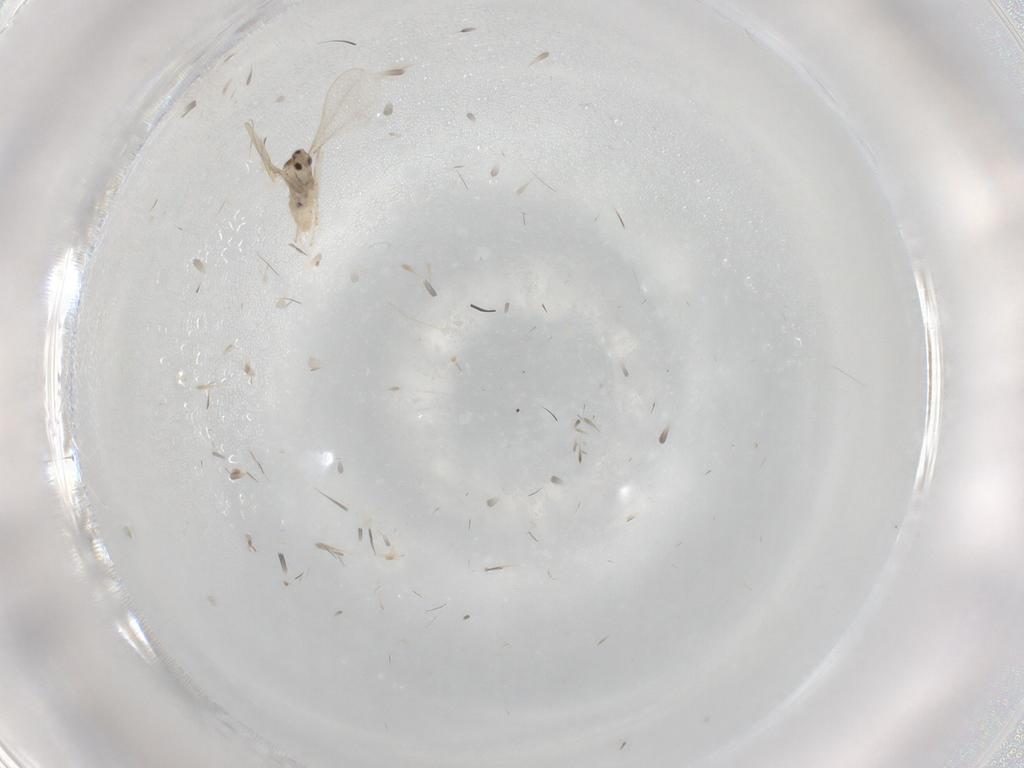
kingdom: Animalia
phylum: Arthropoda
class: Insecta
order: Diptera
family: Cecidomyiidae
